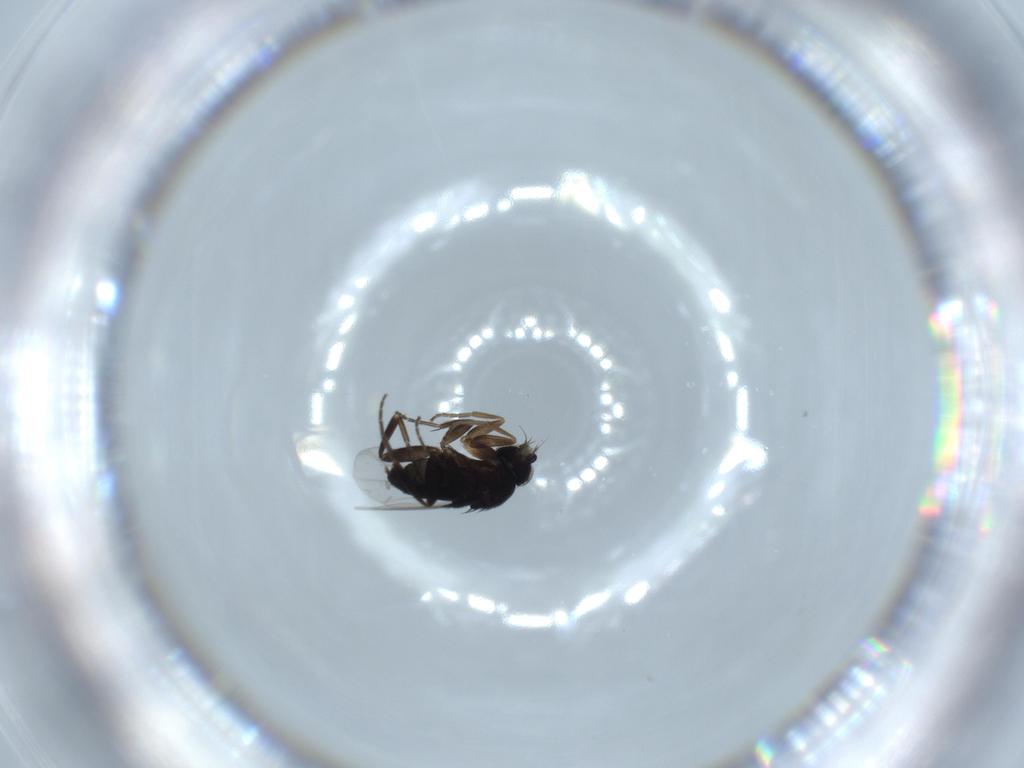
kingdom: Animalia
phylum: Arthropoda
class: Insecta
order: Diptera
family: Phoridae
